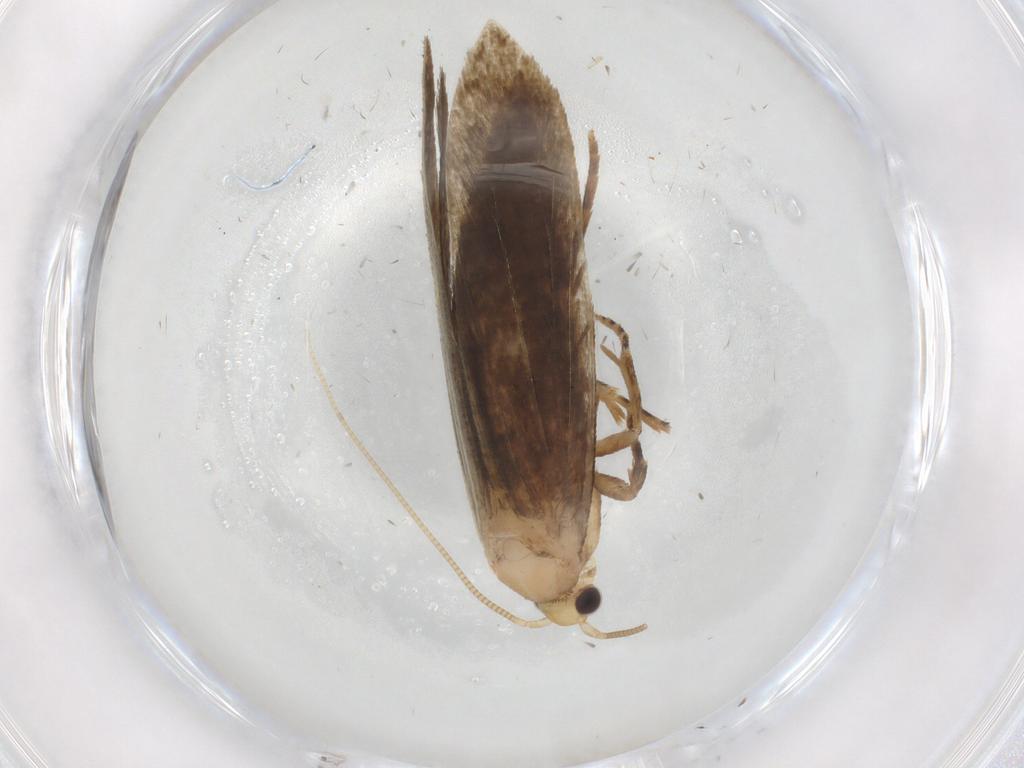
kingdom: Animalia
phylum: Arthropoda
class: Insecta
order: Lepidoptera
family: Tineidae
